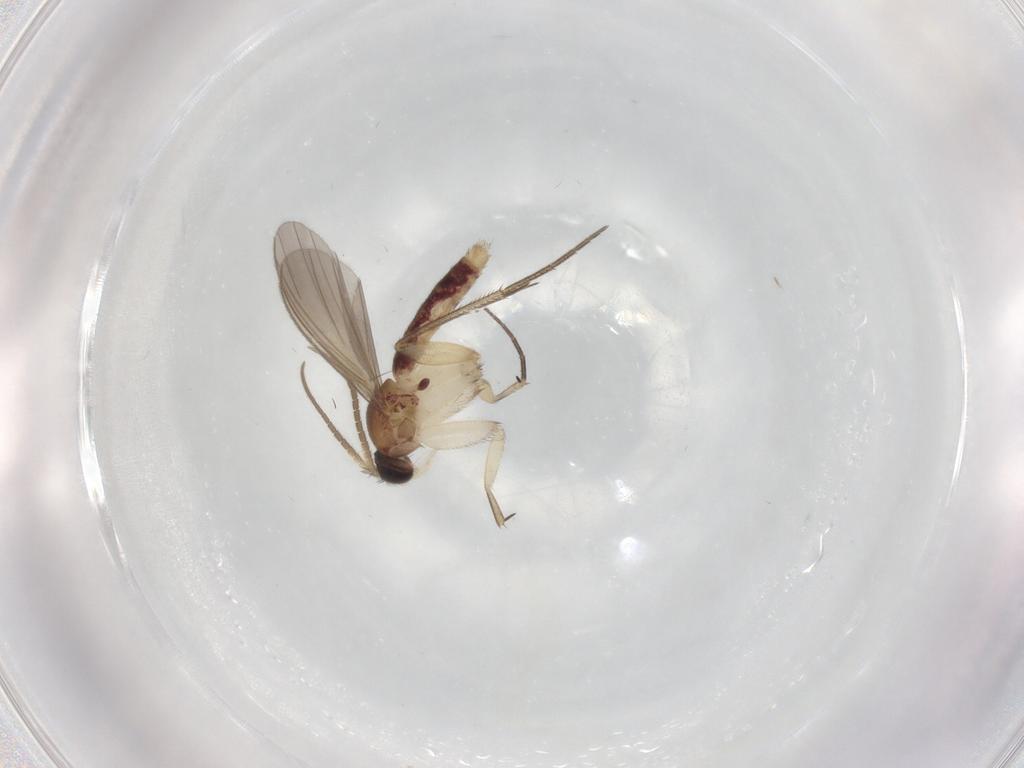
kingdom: Animalia
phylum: Arthropoda
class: Insecta
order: Diptera
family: Mycetophilidae
